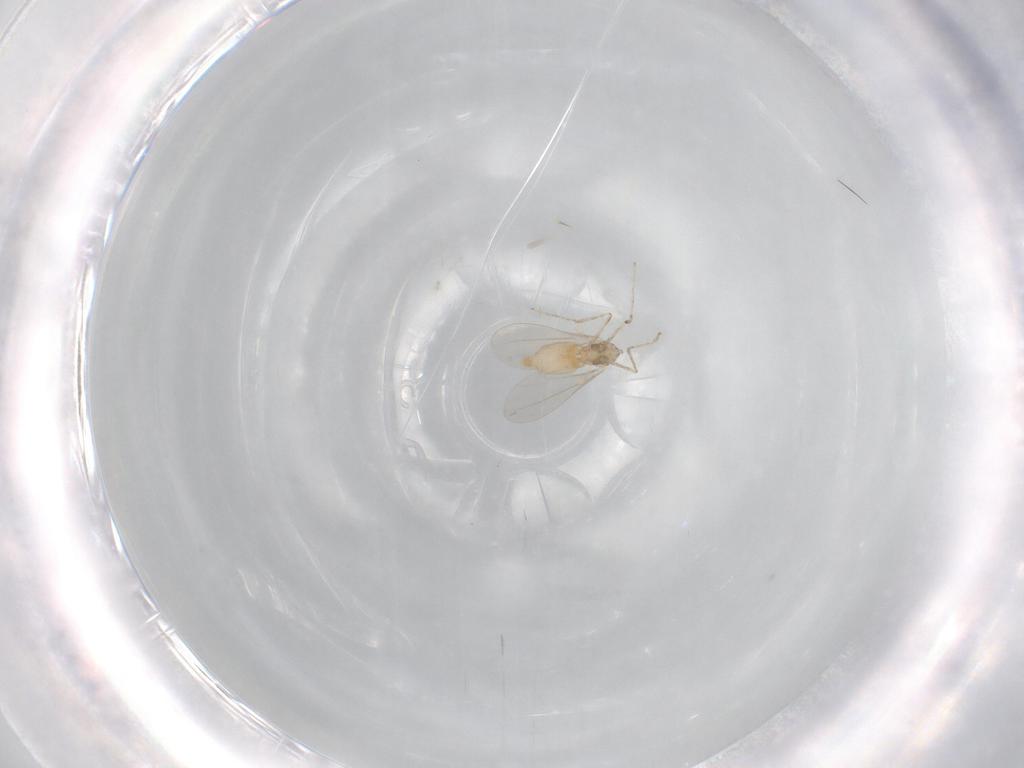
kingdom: Animalia
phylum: Arthropoda
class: Insecta
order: Diptera
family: Cecidomyiidae
